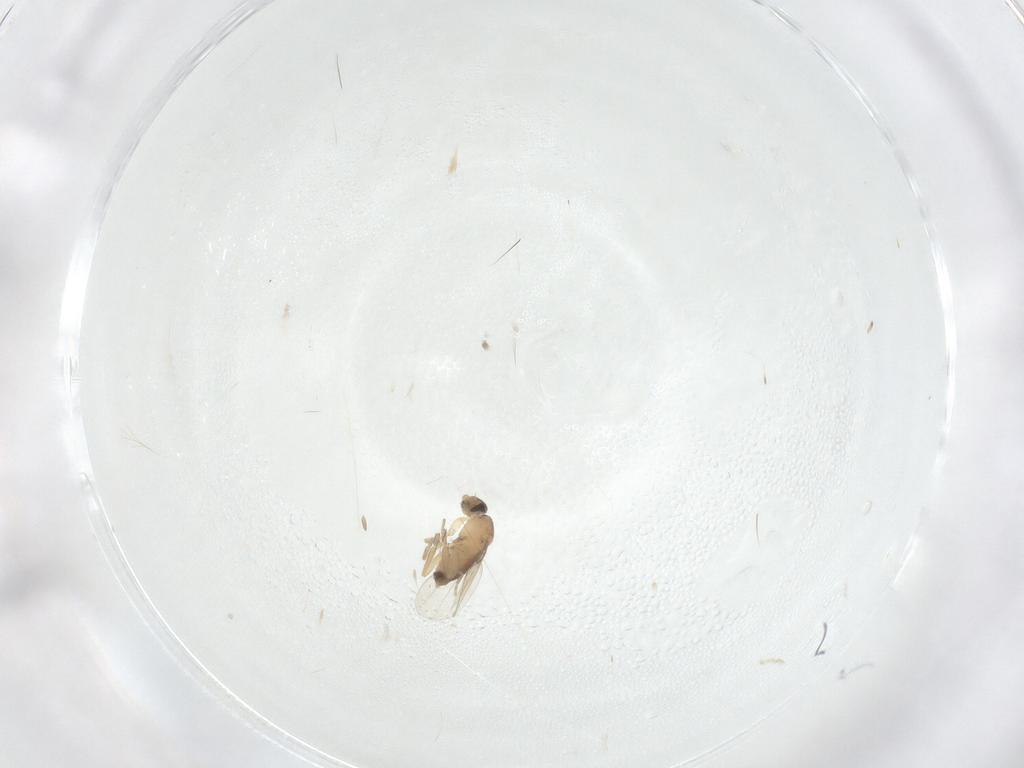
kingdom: Animalia
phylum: Arthropoda
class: Insecta
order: Diptera
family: Phoridae
